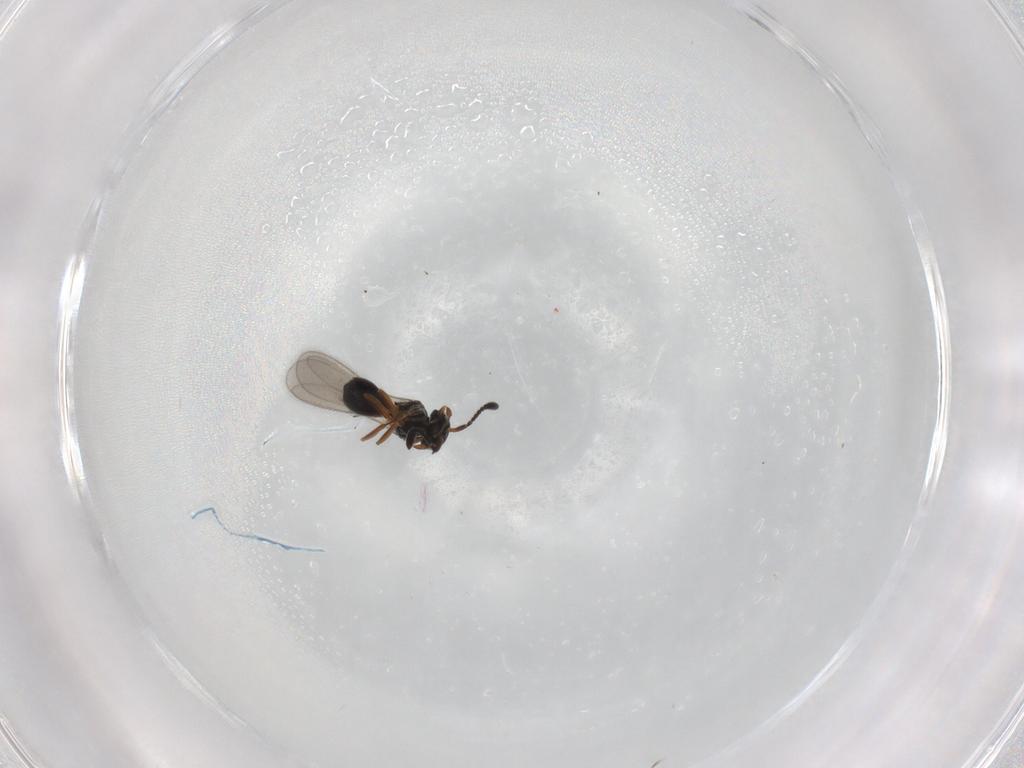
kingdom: Animalia
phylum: Arthropoda
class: Insecta
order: Hymenoptera
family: Scelionidae
